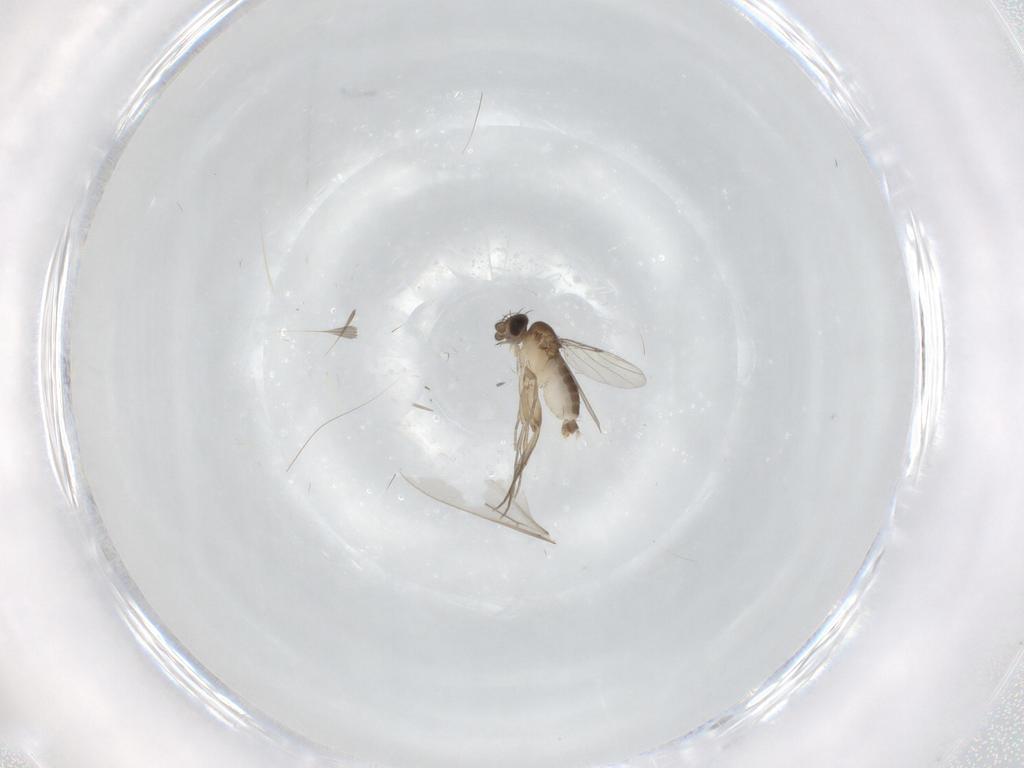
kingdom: Animalia
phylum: Arthropoda
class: Insecta
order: Diptera
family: Phoridae
